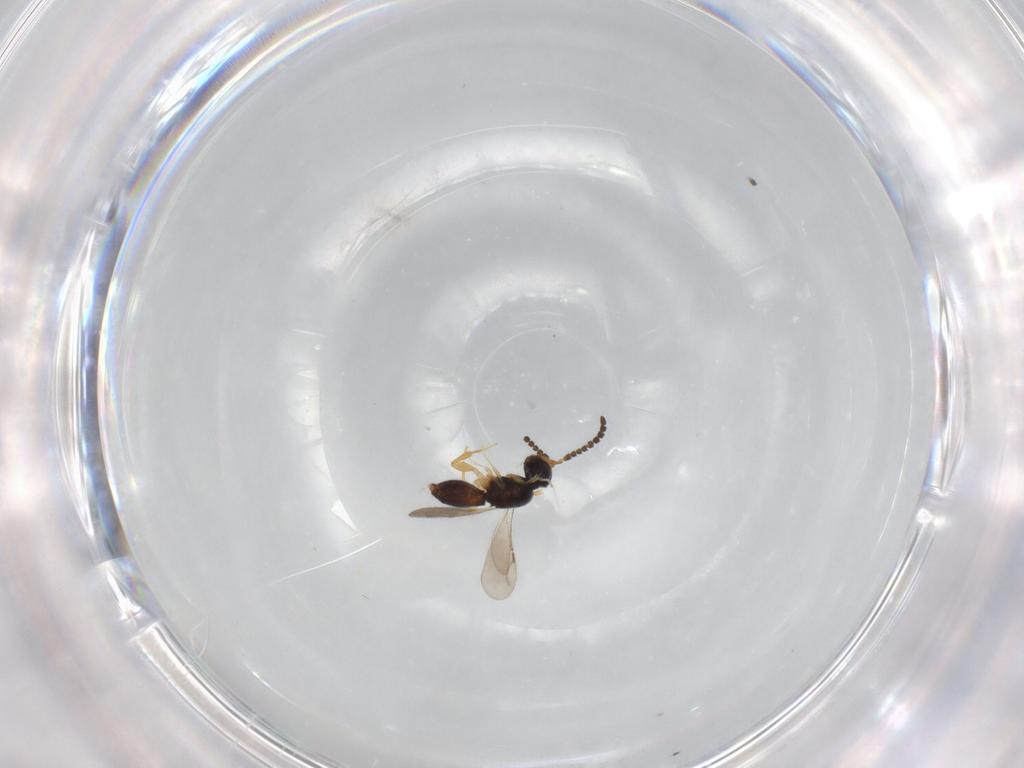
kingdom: Animalia
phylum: Arthropoda
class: Insecta
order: Hymenoptera
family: Ceraphronidae
